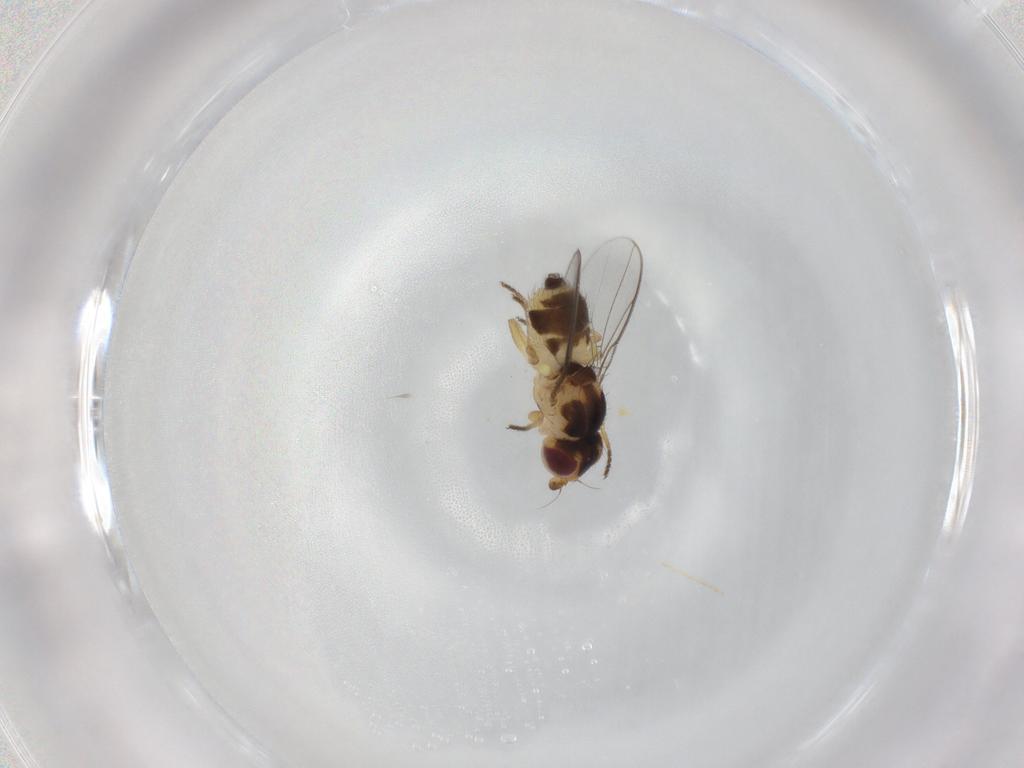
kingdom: Animalia
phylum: Arthropoda
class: Insecta
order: Diptera
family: Chloropidae
